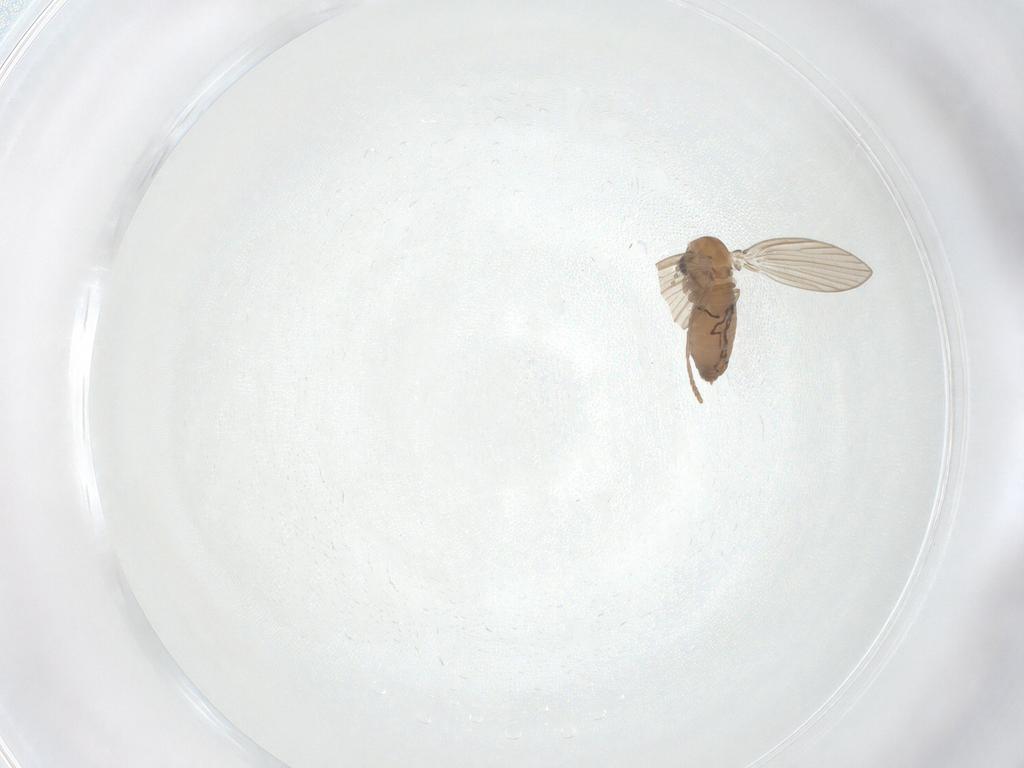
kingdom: Animalia
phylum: Arthropoda
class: Insecta
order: Diptera
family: Psychodidae
